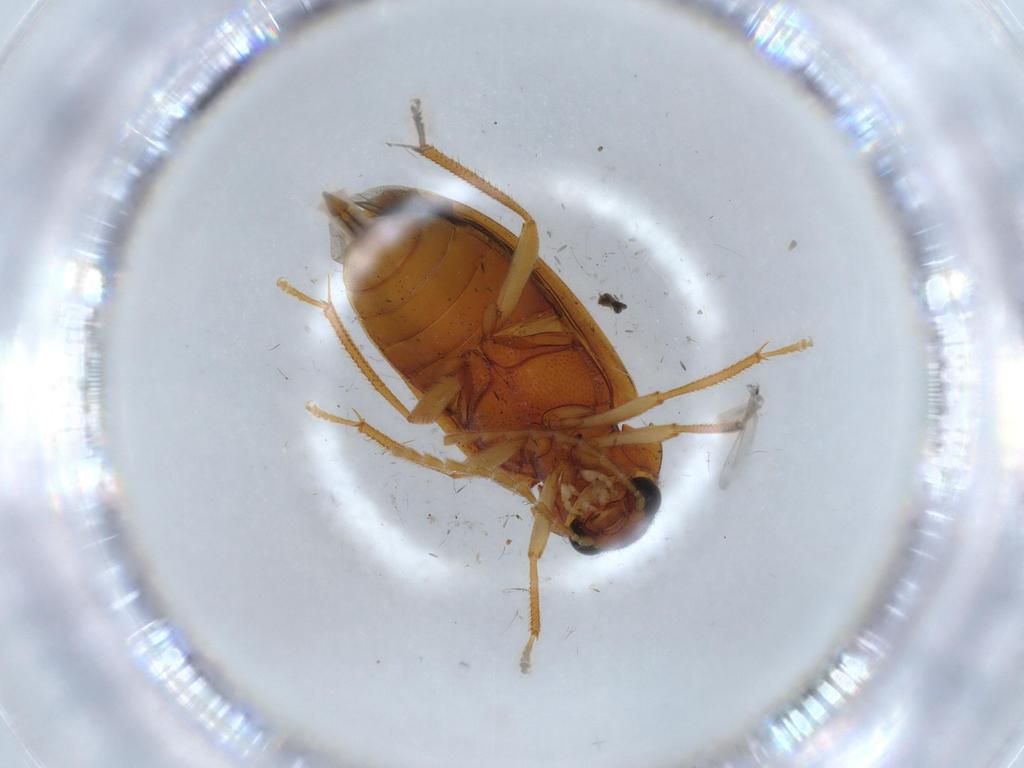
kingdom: Animalia
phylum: Arthropoda
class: Insecta
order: Coleoptera
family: Ptilodactylidae
